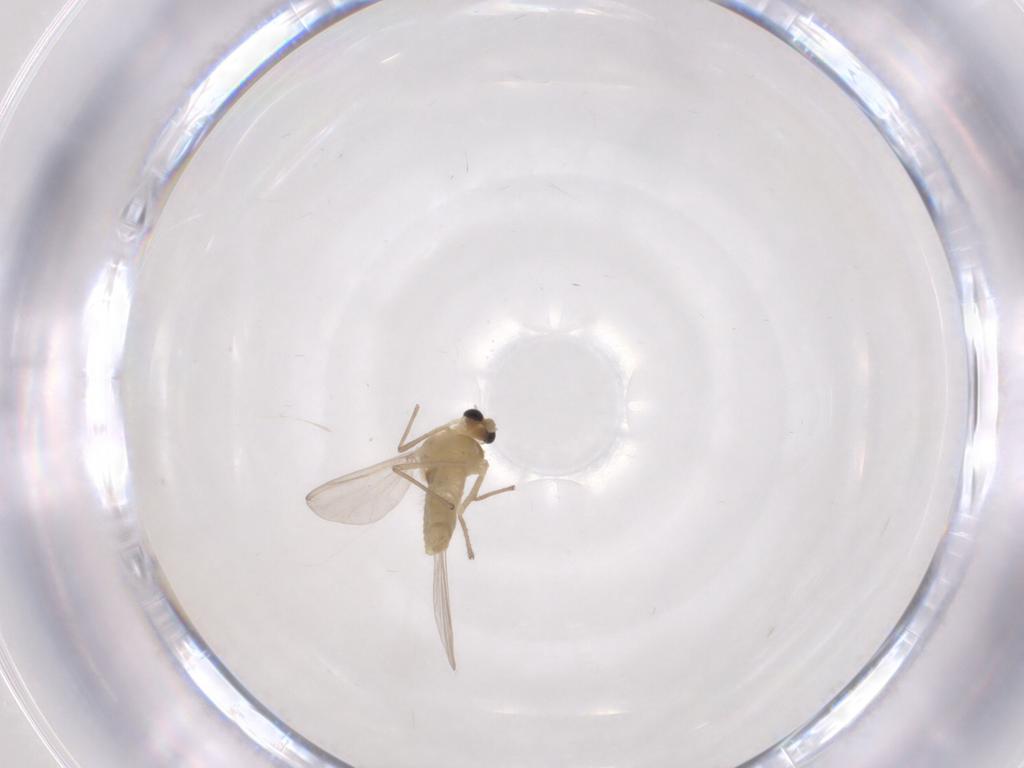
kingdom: Animalia
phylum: Arthropoda
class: Insecta
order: Diptera
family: Chironomidae
